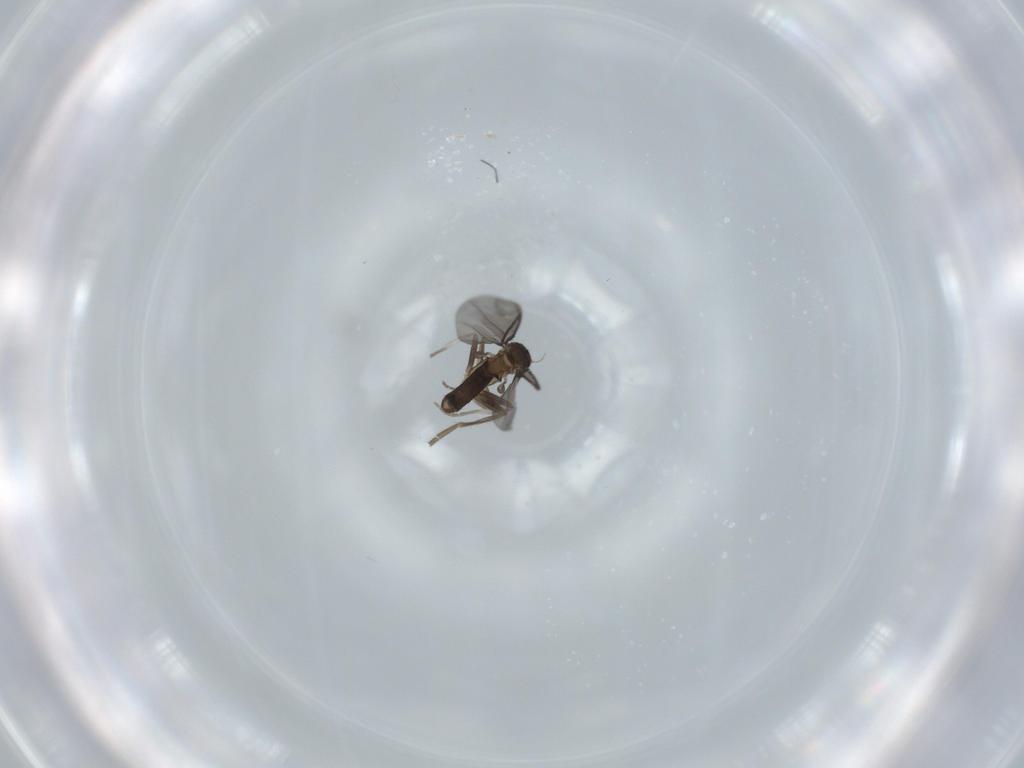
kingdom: Animalia
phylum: Arthropoda
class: Insecta
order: Diptera
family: Phoridae
